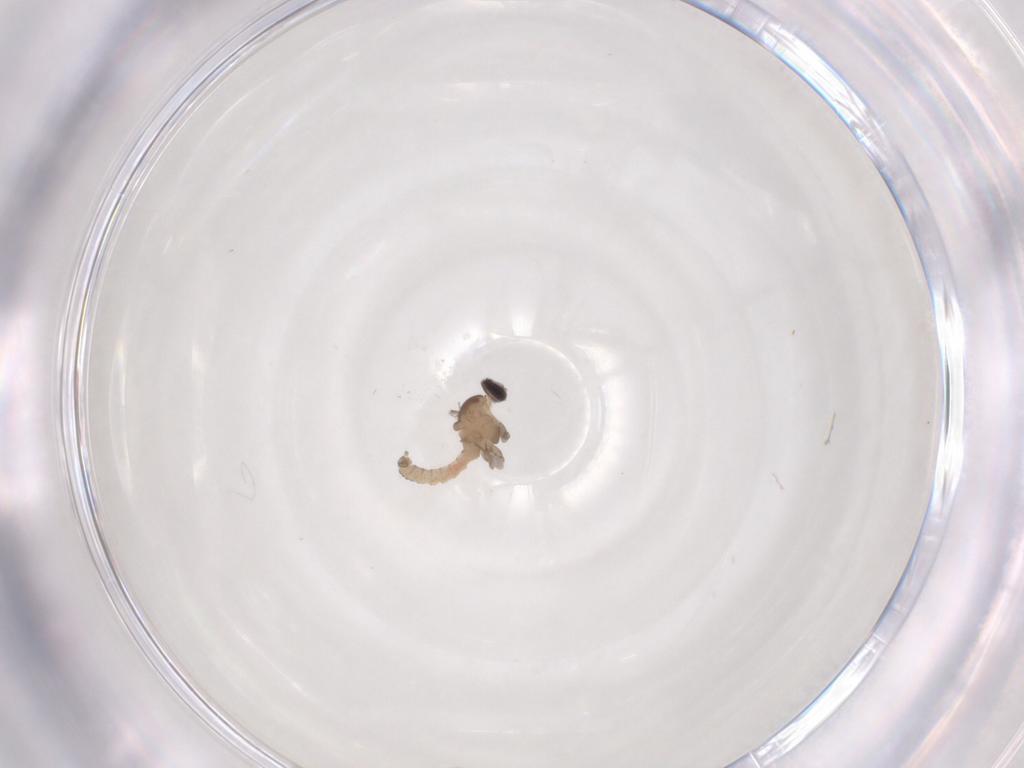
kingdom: Animalia
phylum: Arthropoda
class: Insecta
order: Diptera
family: Cecidomyiidae
